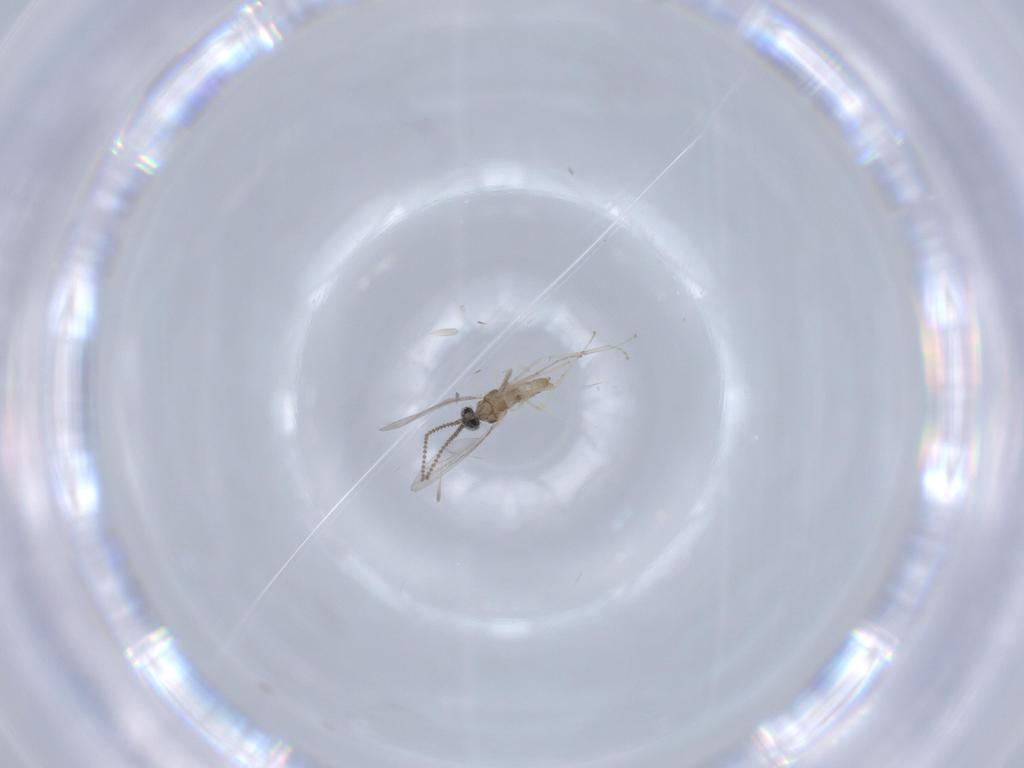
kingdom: Animalia
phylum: Arthropoda
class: Insecta
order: Diptera
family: Cecidomyiidae
